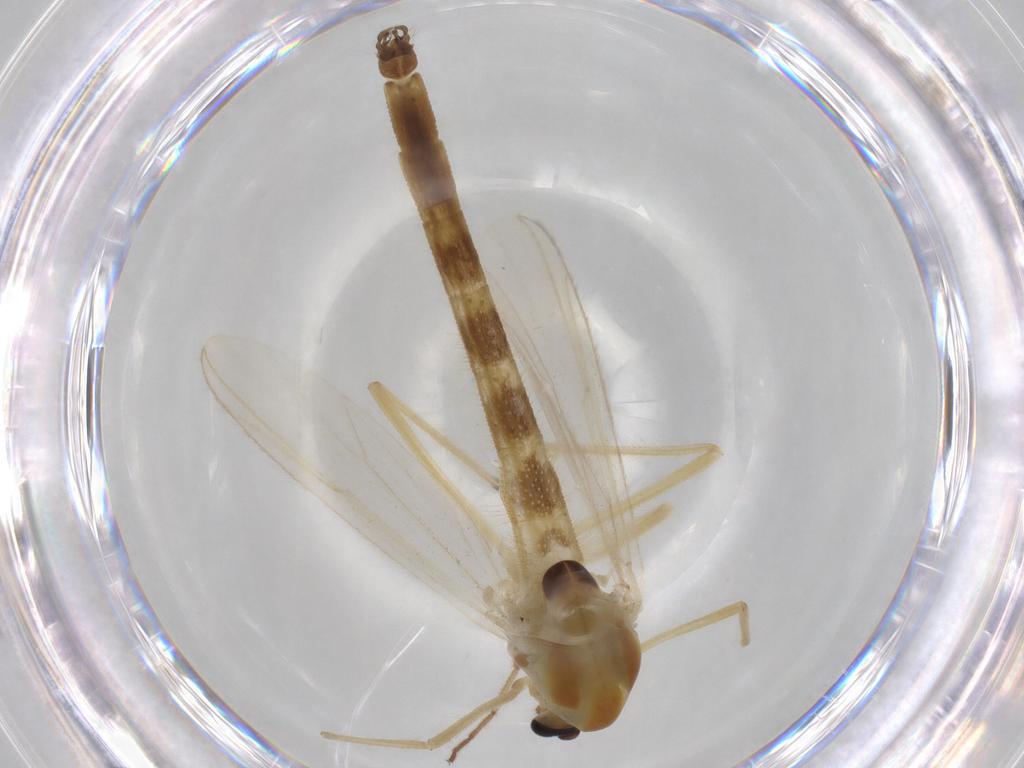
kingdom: Animalia
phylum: Arthropoda
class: Insecta
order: Diptera
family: Chironomidae
